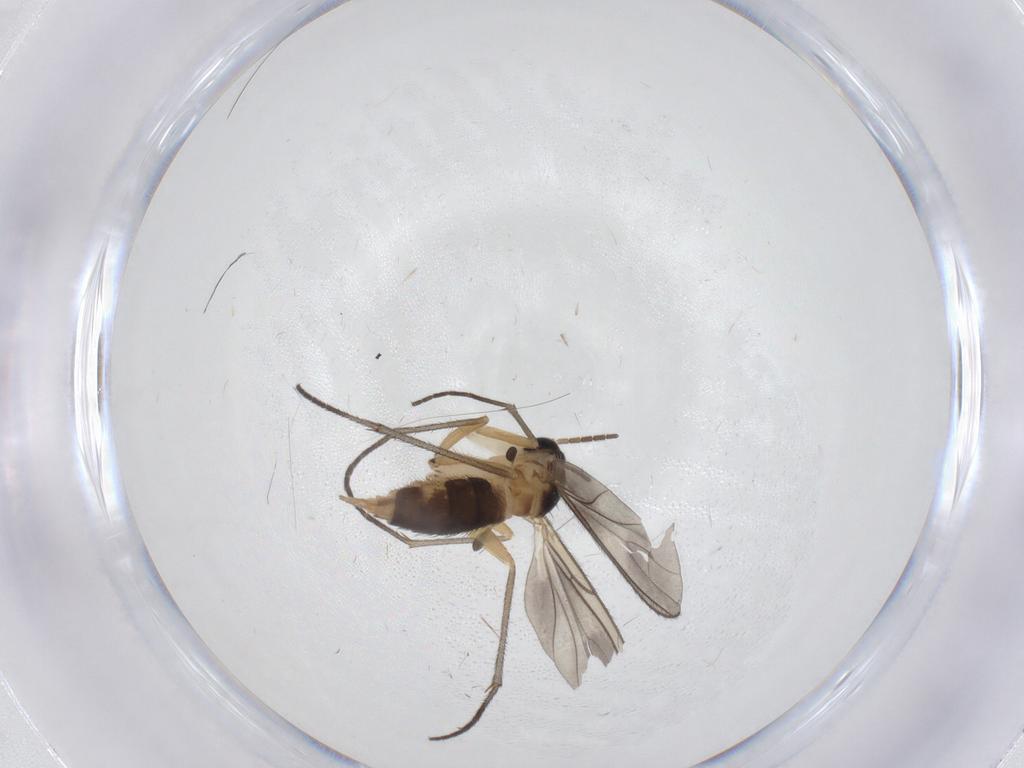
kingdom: Animalia
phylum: Arthropoda
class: Insecta
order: Diptera
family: Sciaridae
